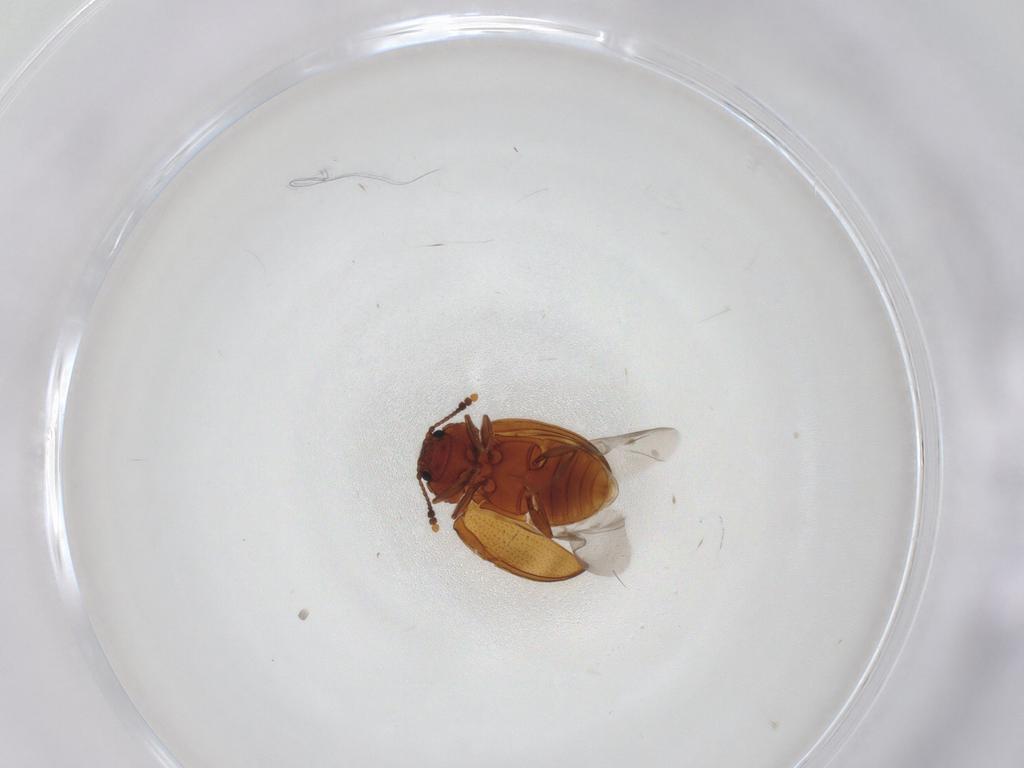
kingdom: Animalia
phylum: Arthropoda
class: Insecta
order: Coleoptera
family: Erotylidae
